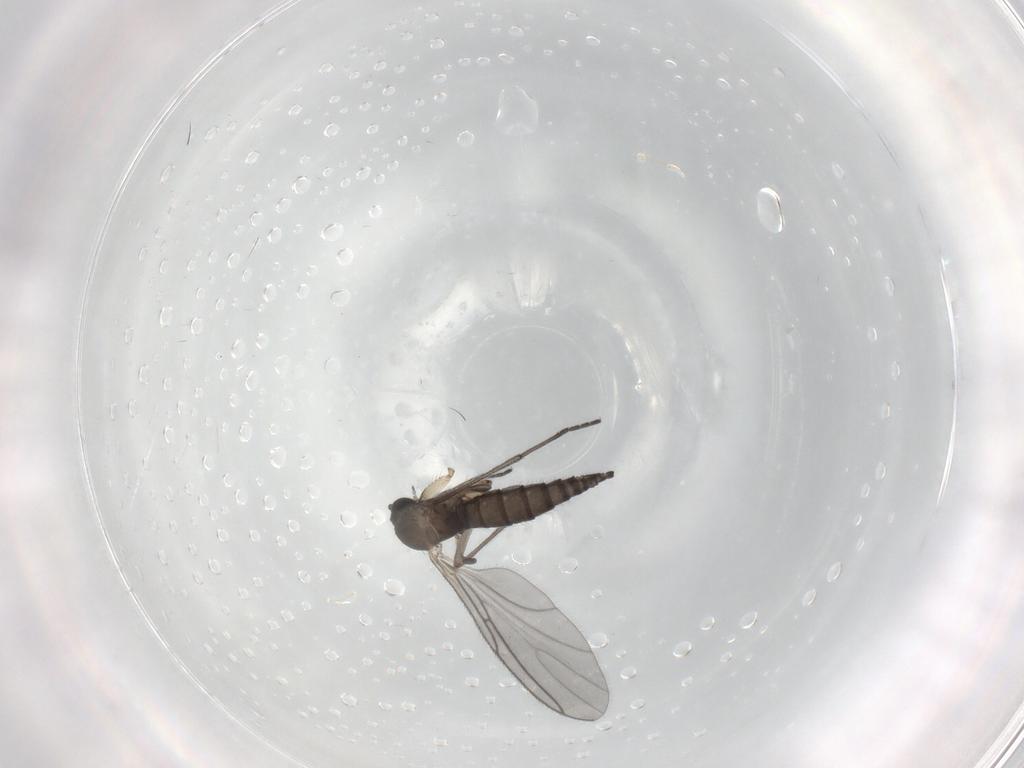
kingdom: Animalia
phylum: Arthropoda
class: Insecta
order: Diptera
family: Sciaridae
